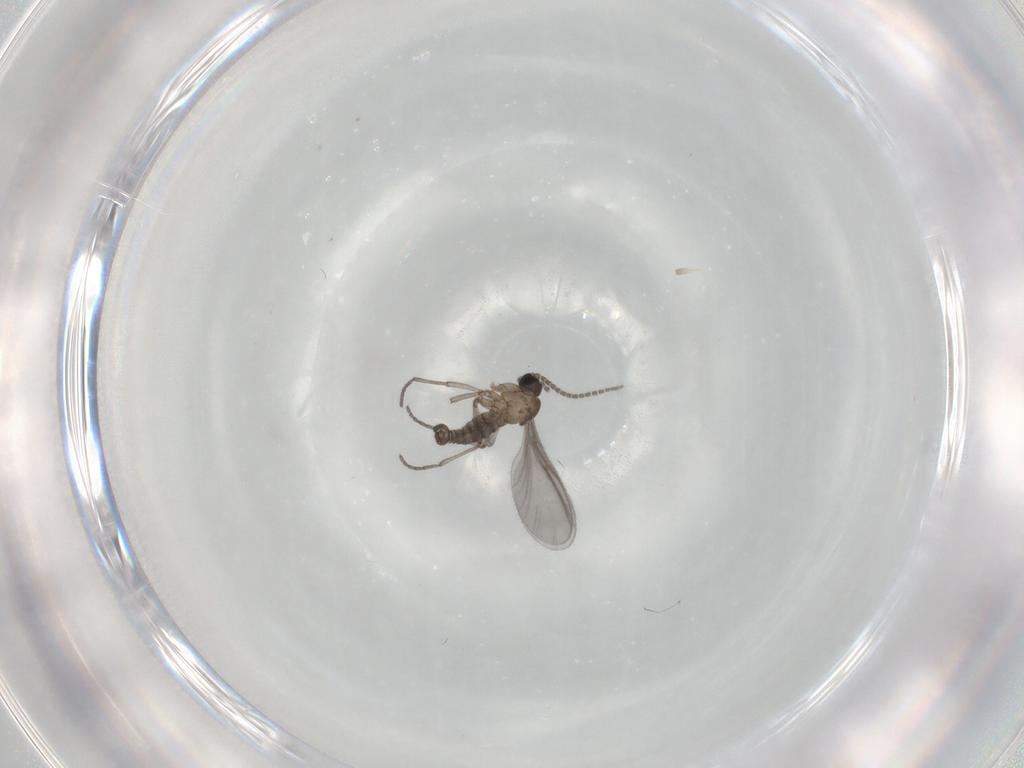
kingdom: Animalia
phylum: Arthropoda
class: Insecta
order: Diptera
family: Sciaridae
